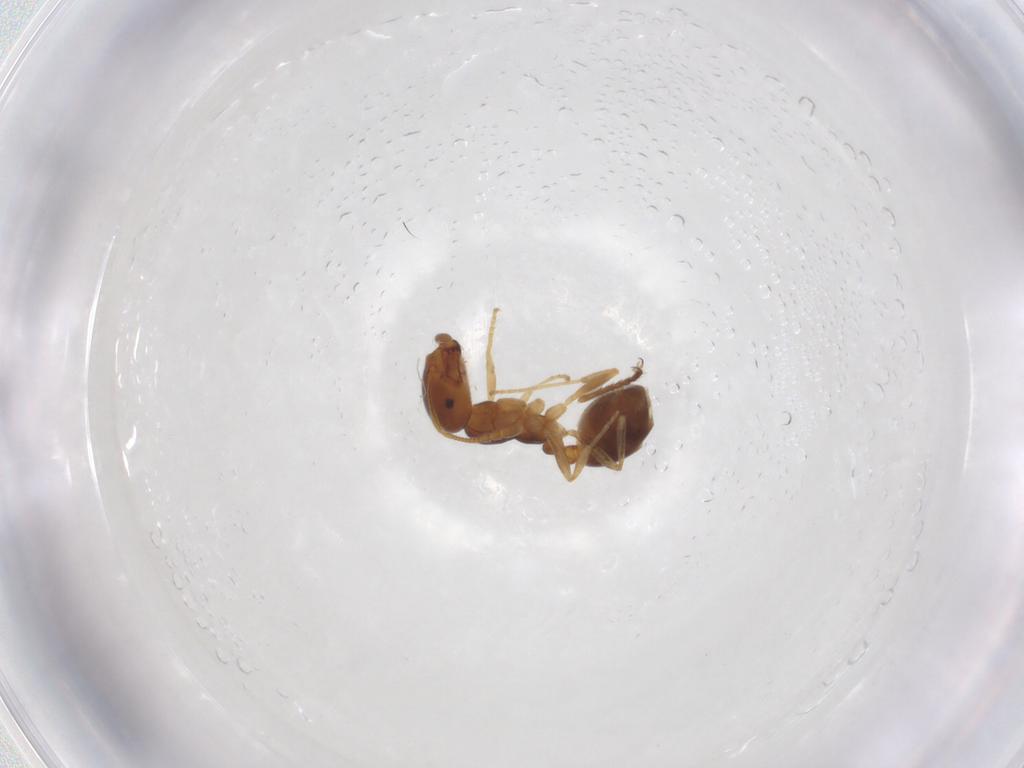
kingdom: Animalia
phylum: Arthropoda
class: Insecta
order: Hymenoptera
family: Formicidae
